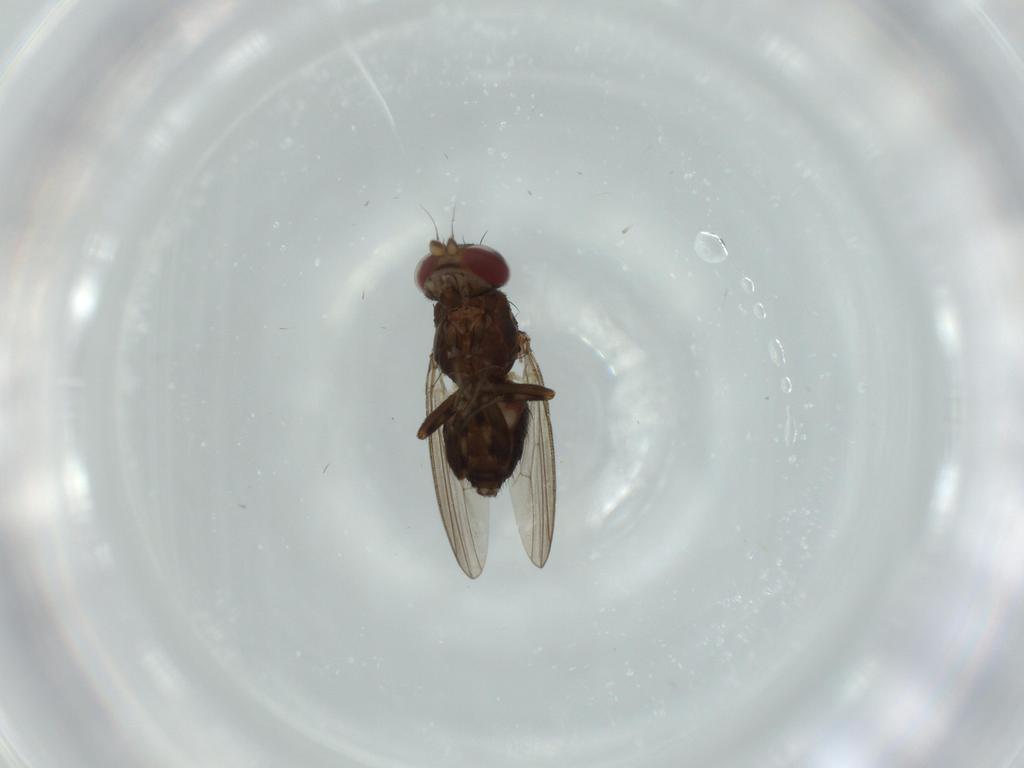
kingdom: Animalia
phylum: Arthropoda
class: Insecta
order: Diptera
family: Heleomyzidae
